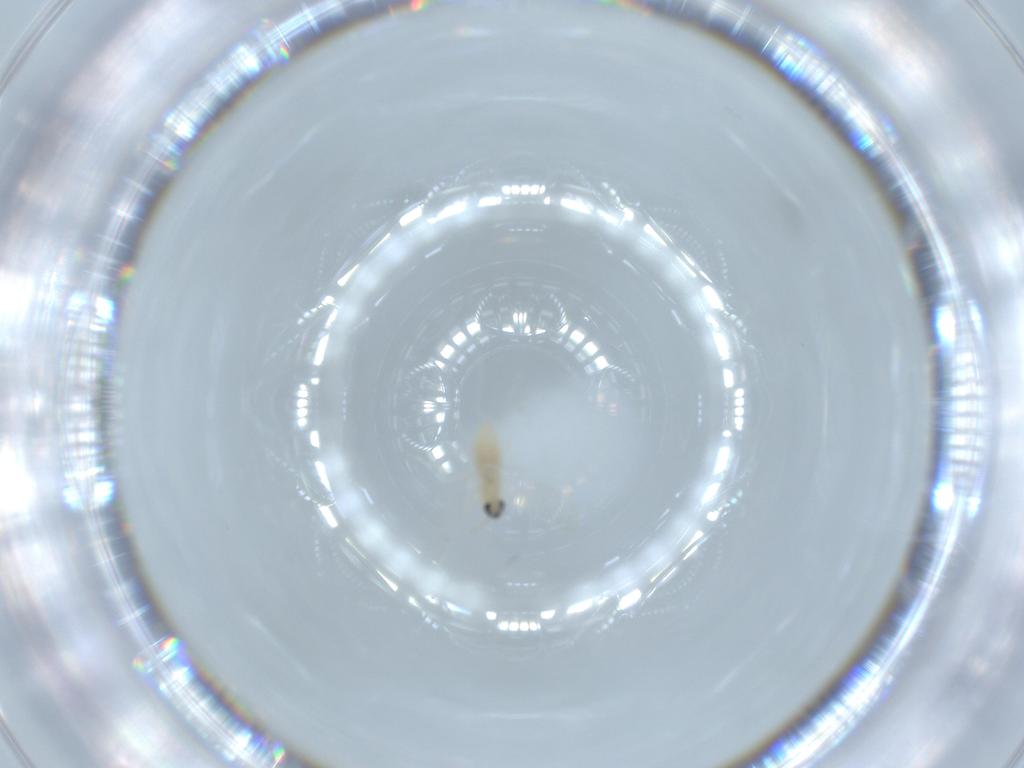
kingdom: Animalia
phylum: Arthropoda
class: Insecta
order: Diptera
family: Cecidomyiidae
